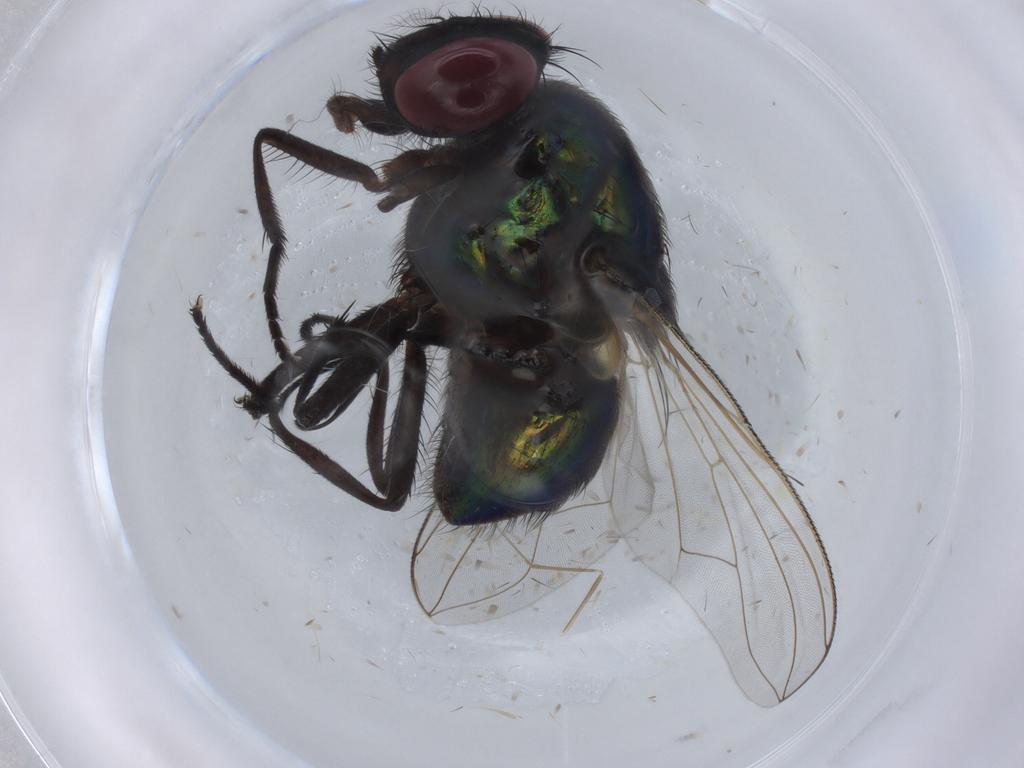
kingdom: Animalia
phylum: Arthropoda
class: Insecta
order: Diptera
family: Muscidae
